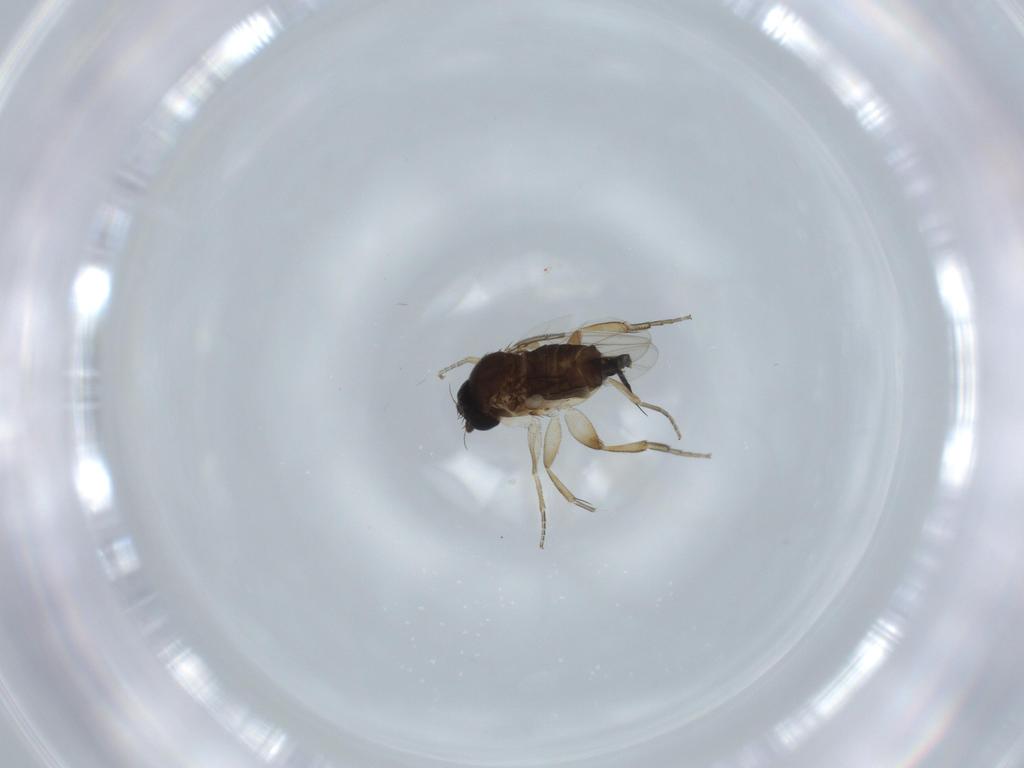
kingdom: Animalia
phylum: Arthropoda
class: Insecta
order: Diptera
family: Phoridae
